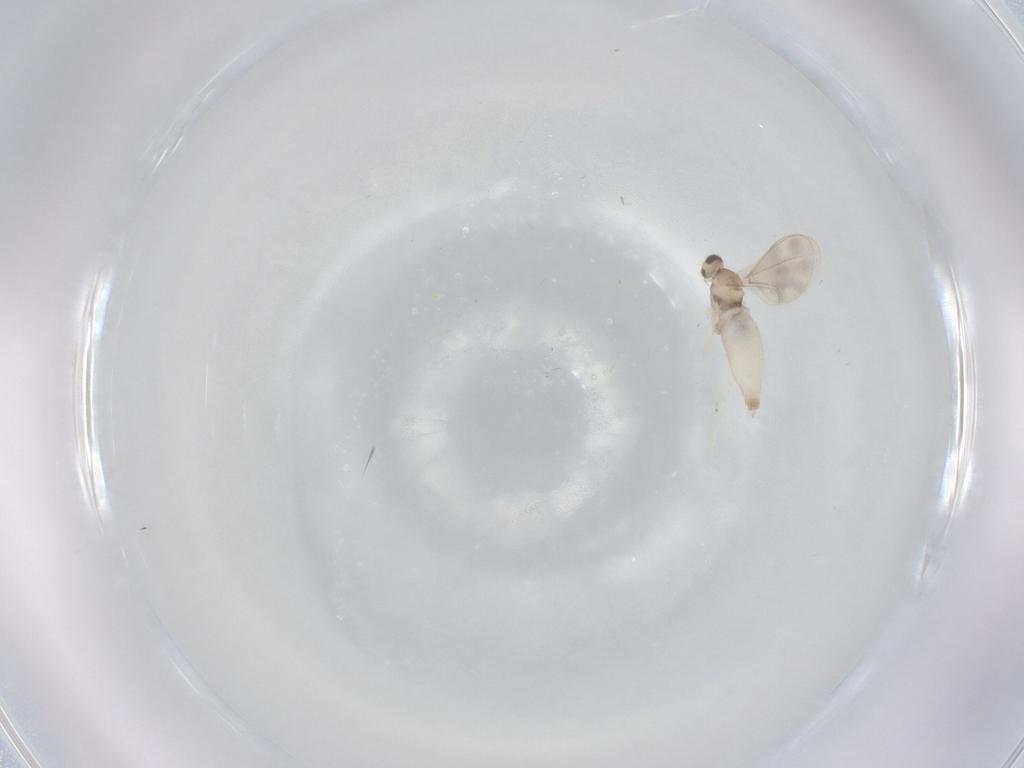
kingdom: Animalia
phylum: Arthropoda
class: Insecta
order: Diptera
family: Cecidomyiidae
